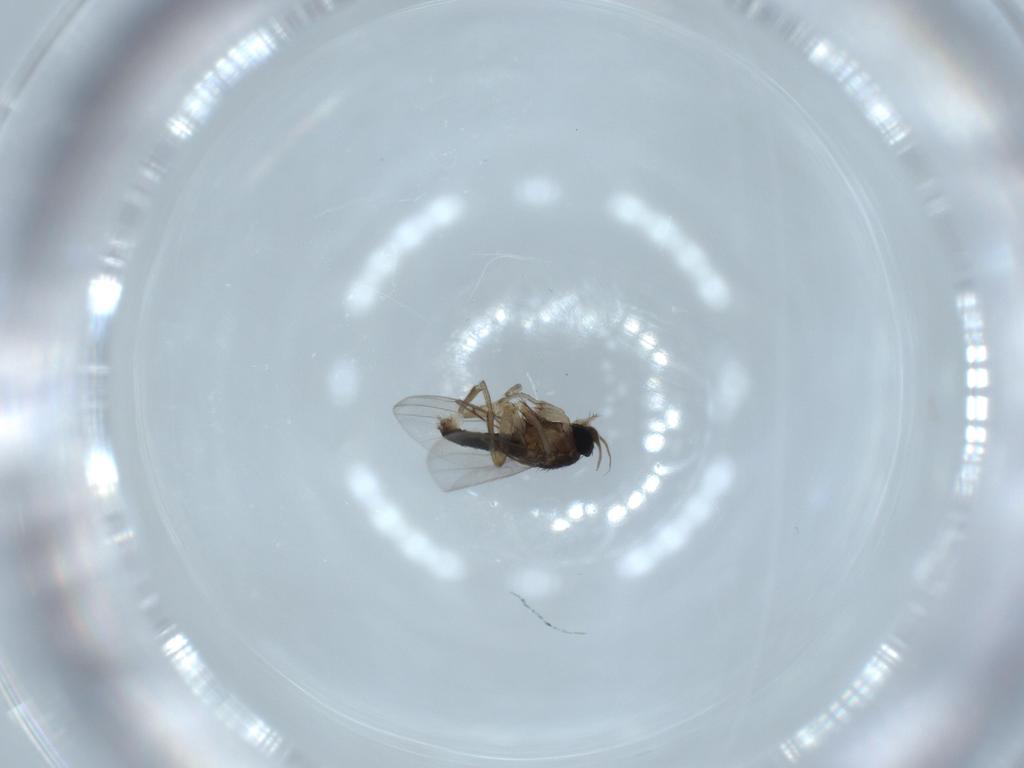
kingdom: Animalia
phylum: Arthropoda
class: Insecta
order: Diptera
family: Phoridae
